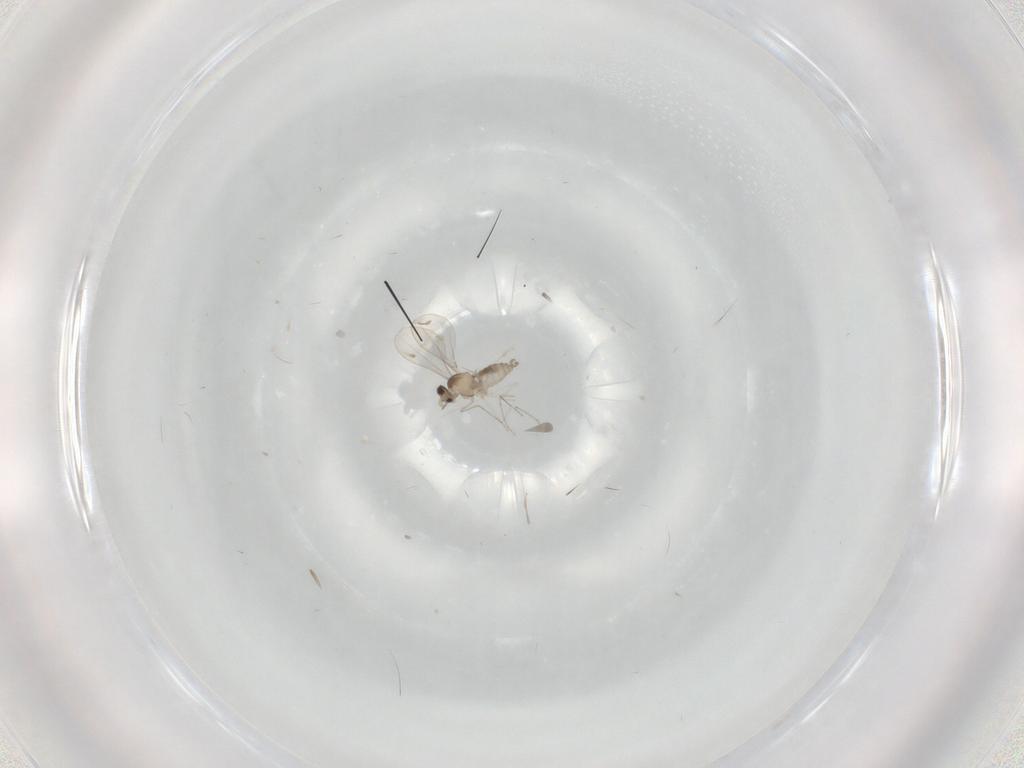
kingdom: Animalia
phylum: Arthropoda
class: Insecta
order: Diptera
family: Cecidomyiidae
